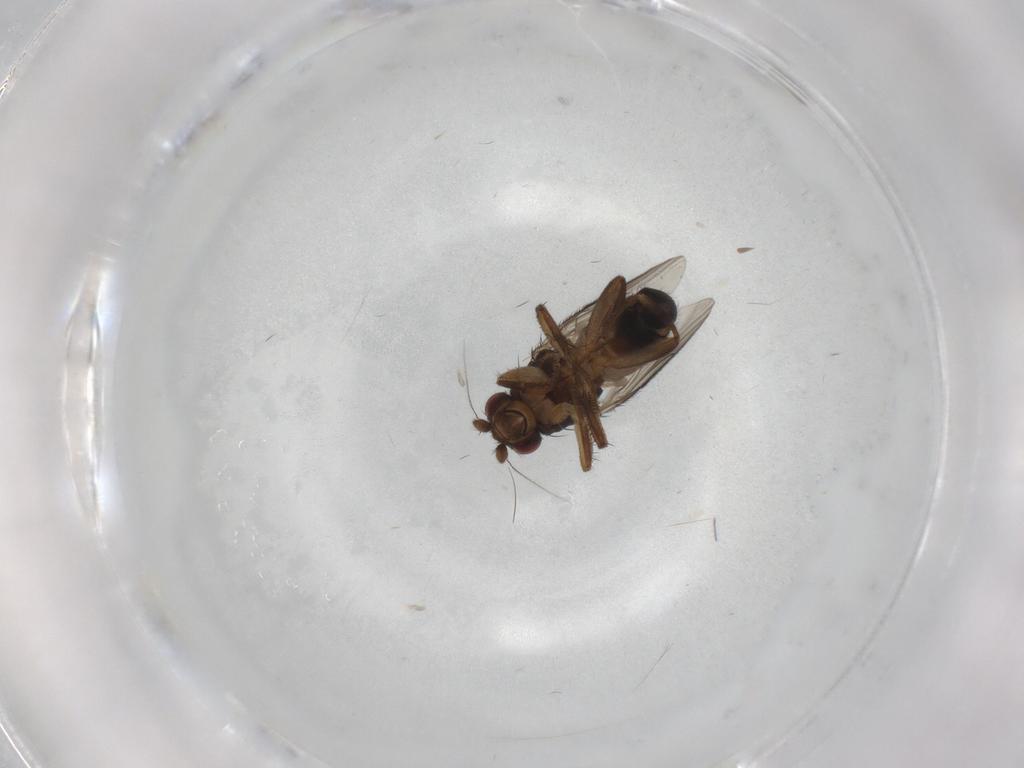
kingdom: Animalia
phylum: Arthropoda
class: Insecta
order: Diptera
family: Sphaeroceridae
